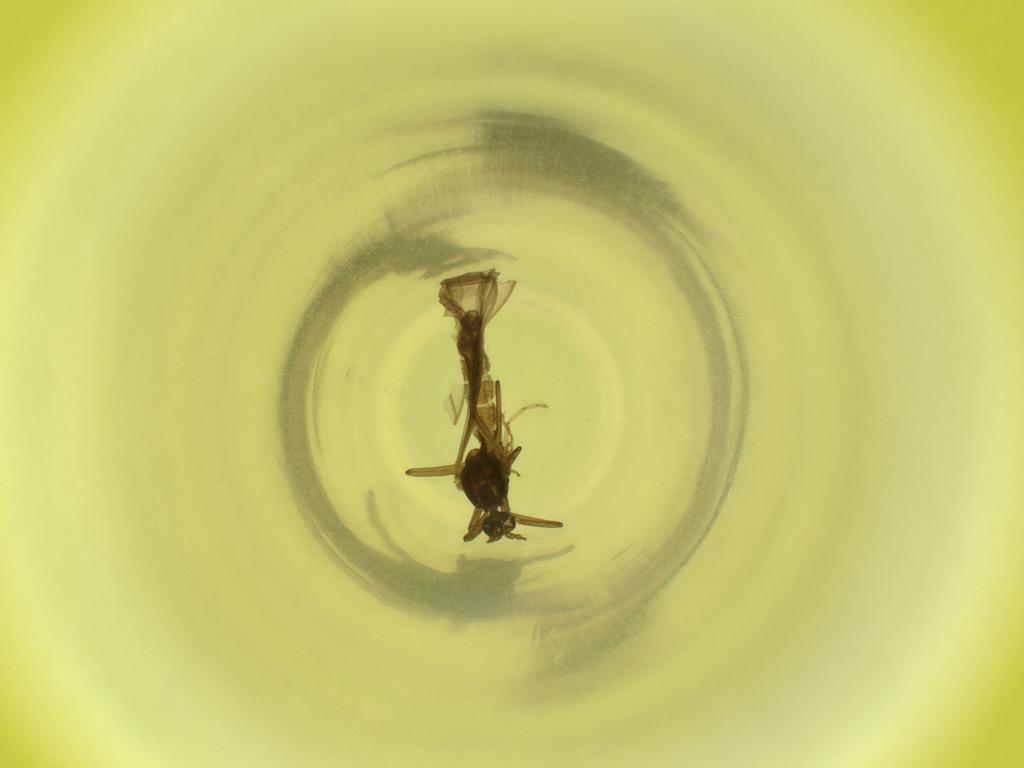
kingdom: Animalia
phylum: Arthropoda
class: Insecta
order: Diptera
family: Cecidomyiidae
